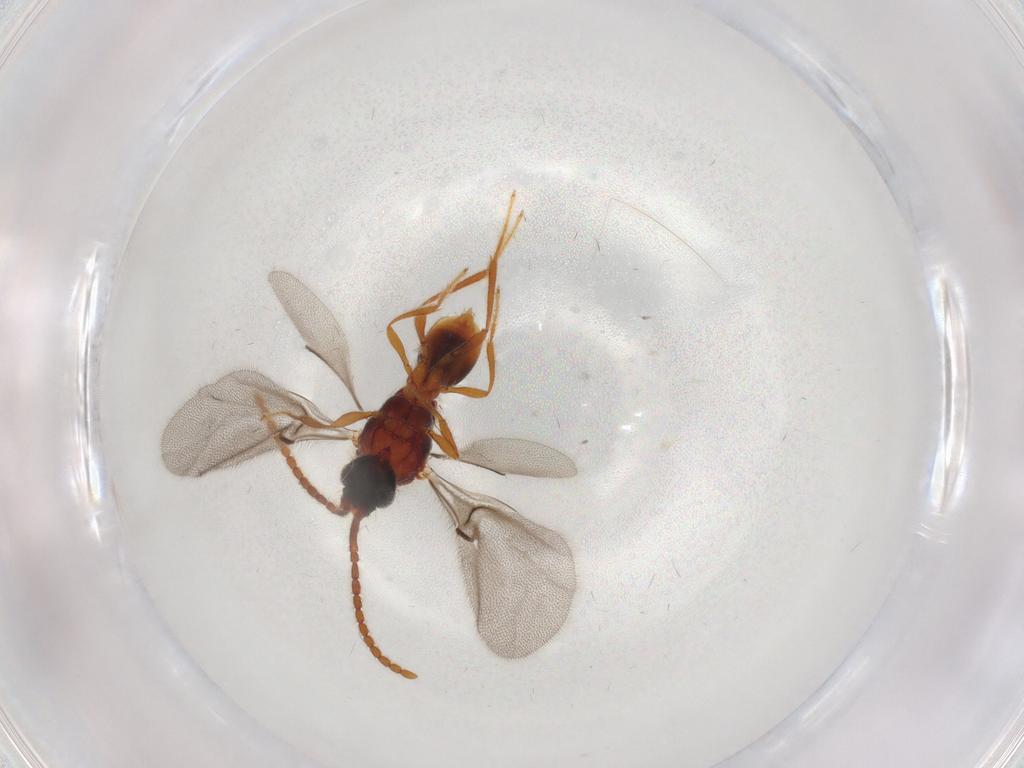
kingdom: Animalia
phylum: Arthropoda
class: Insecta
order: Hymenoptera
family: Diapriidae
